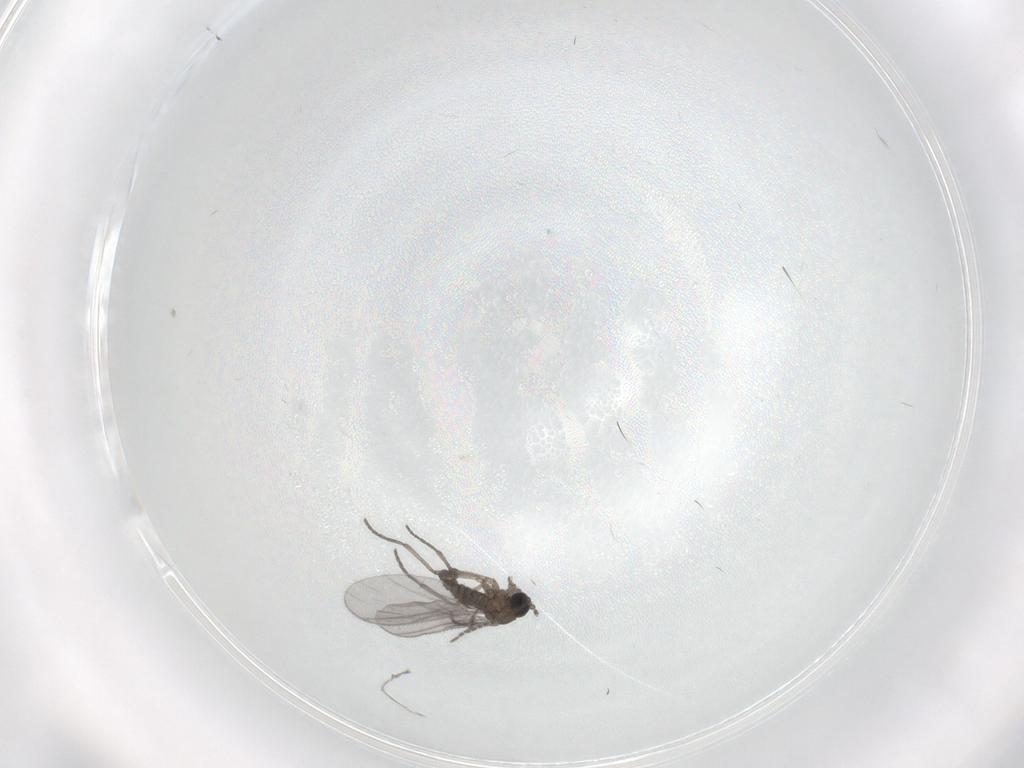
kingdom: Animalia
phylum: Arthropoda
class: Insecta
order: Diptera
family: Sciaridae
